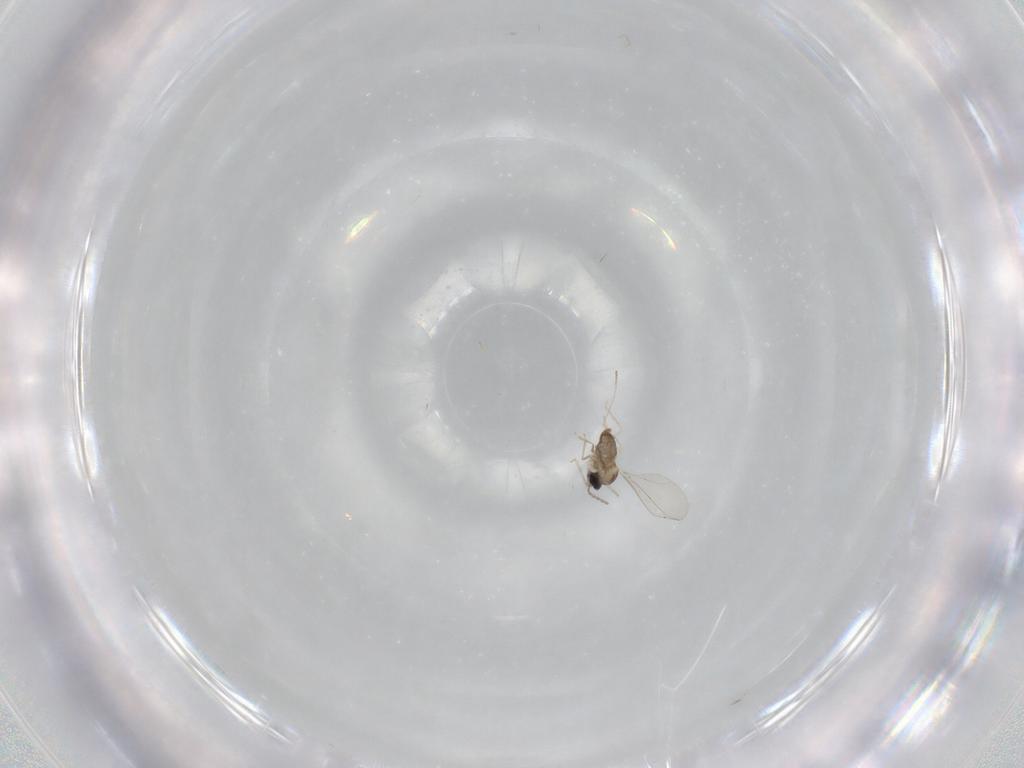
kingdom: Animalia
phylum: Arthropoda
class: Insecta
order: Diptera
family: Cecidomyiidae
